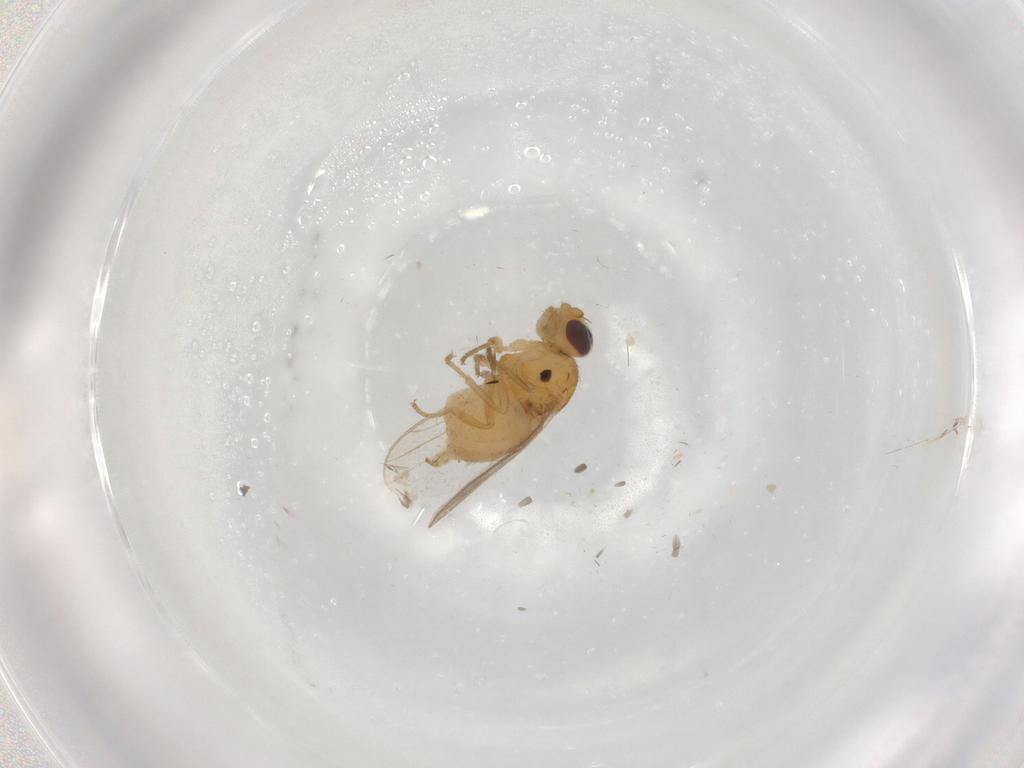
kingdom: Animalia
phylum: Arthropoda
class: Insecta
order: Diptera
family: Chloropidae
